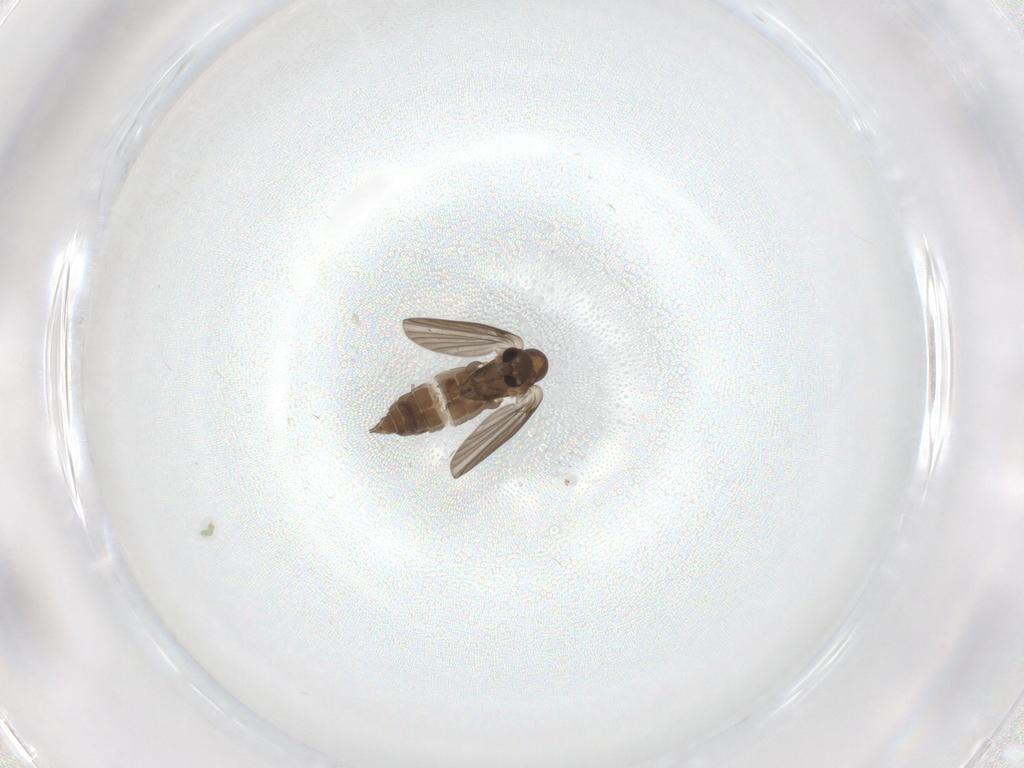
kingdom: Animalia
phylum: Arthropoda
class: Insecta
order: Diptera
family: Cecidomyiidae
